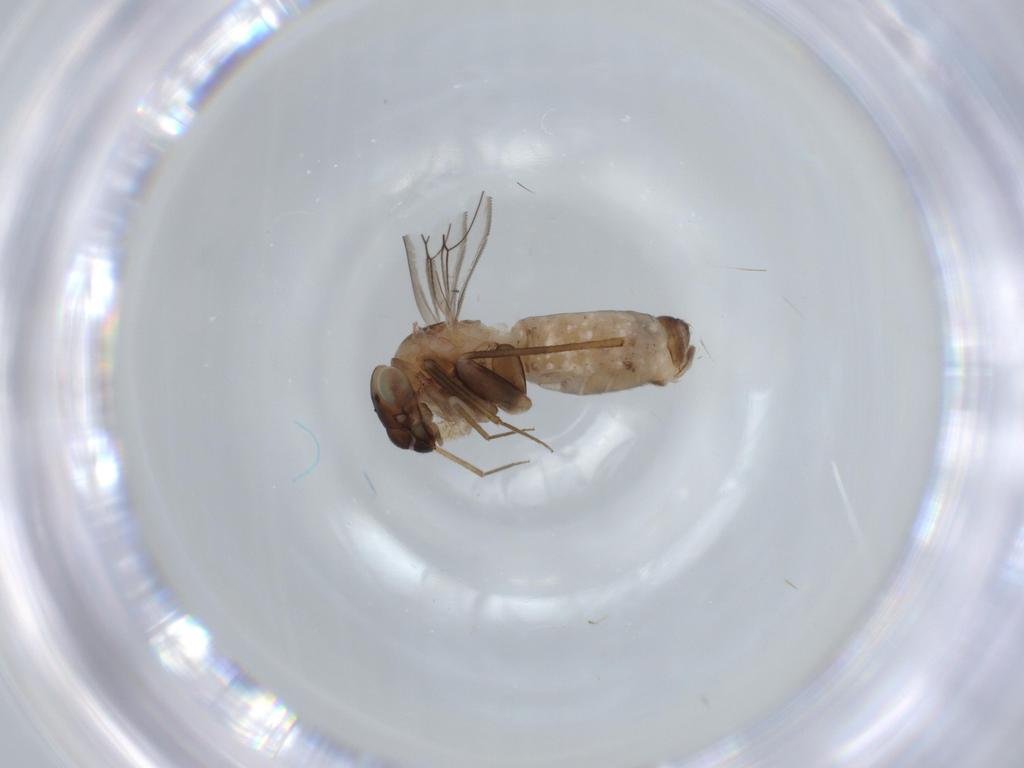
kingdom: Animalia
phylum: Arthropoda
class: Insecta
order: Psocodea
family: Lepidopsocidae
